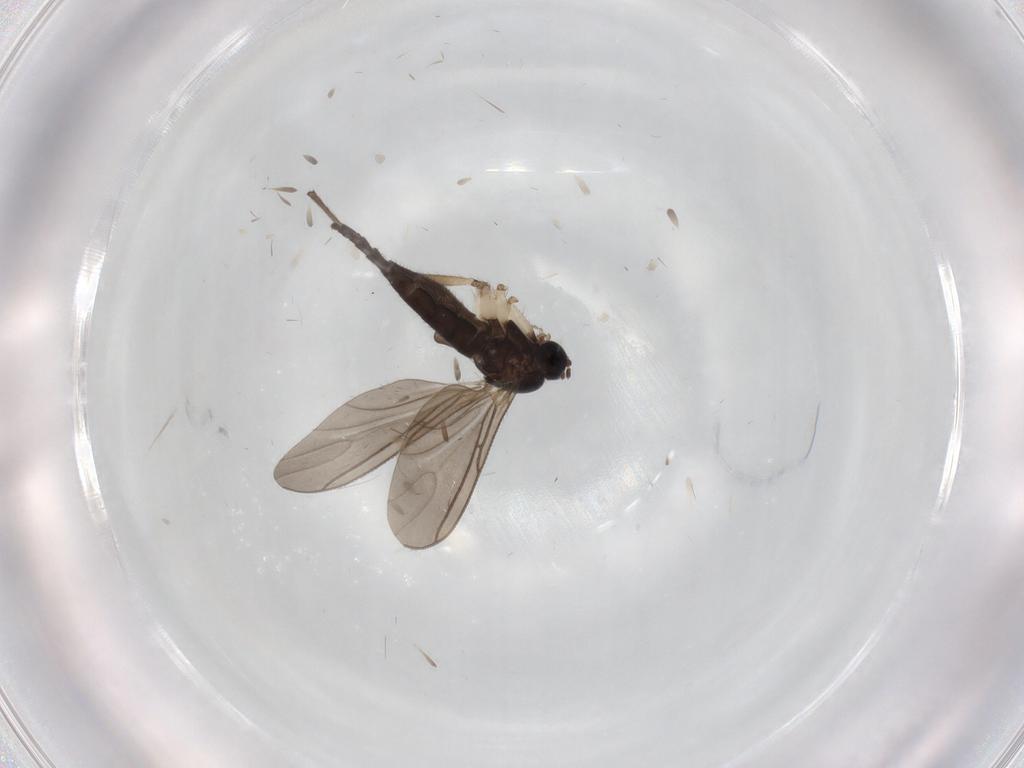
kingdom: Animalia
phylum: Arthropoda
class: Insecta
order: Diptera
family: Sciaridae
